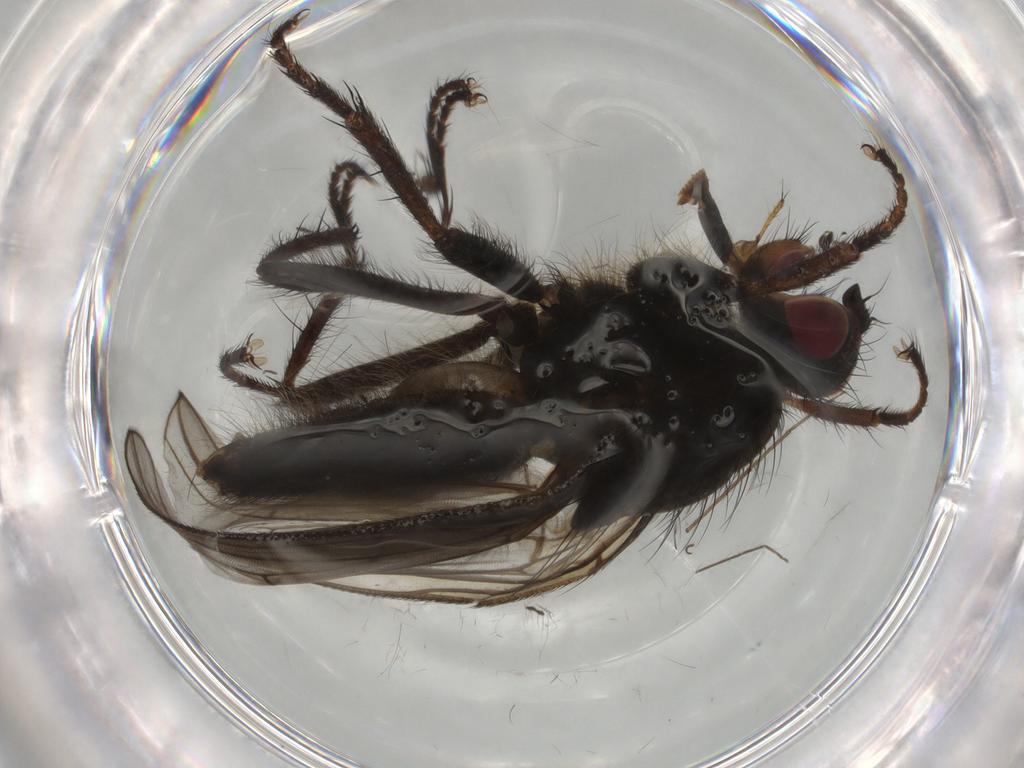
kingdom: Animalia
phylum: Arthropoda
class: Insecta
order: Diptera
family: Scathophagidae
